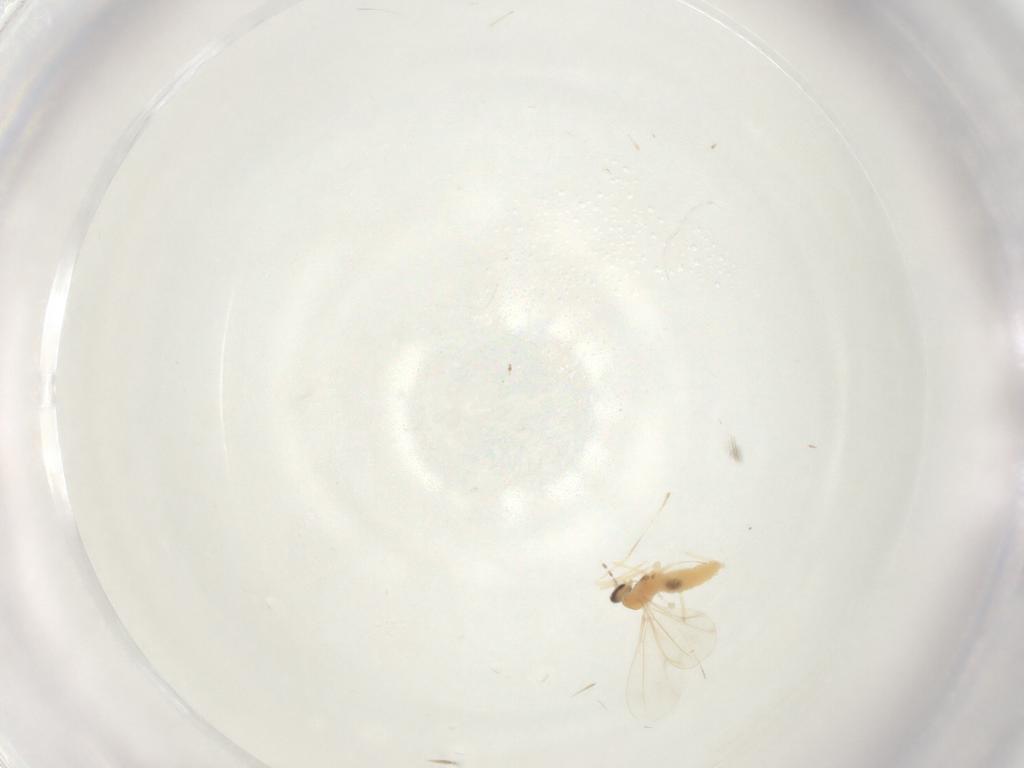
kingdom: Animalia
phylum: Arthropoda
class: Insecta
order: Diptera
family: Cecidomyiidae
